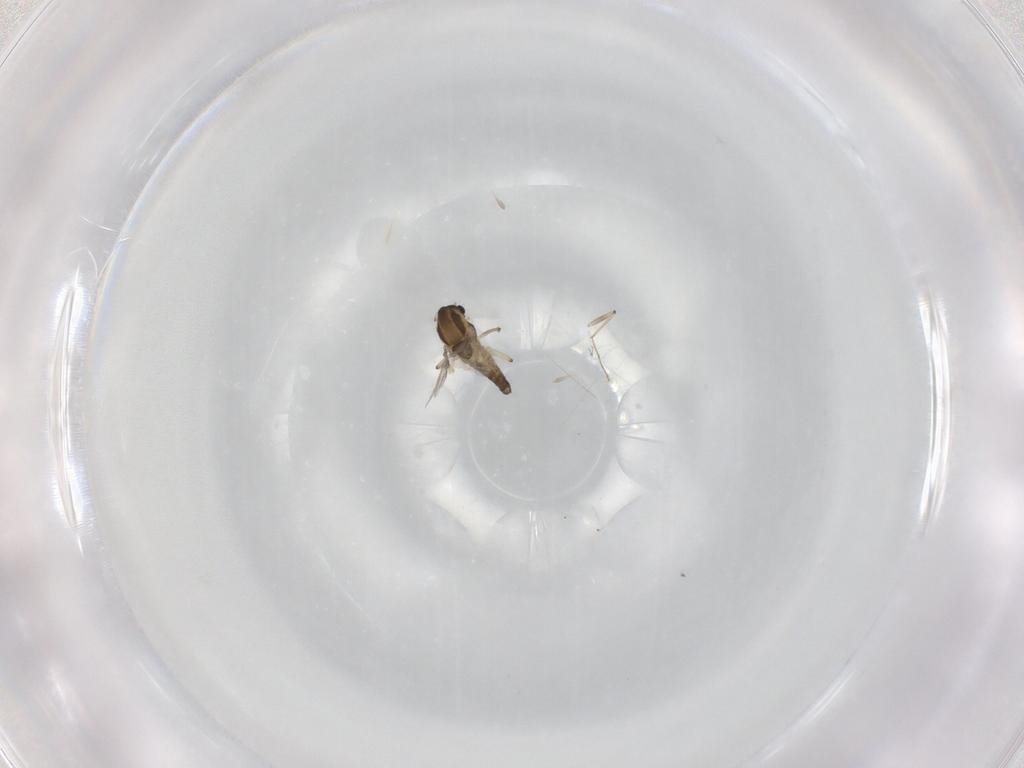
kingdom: Animalia
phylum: Arthropoda
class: Insecta
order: Diptera
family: Chironomidae
